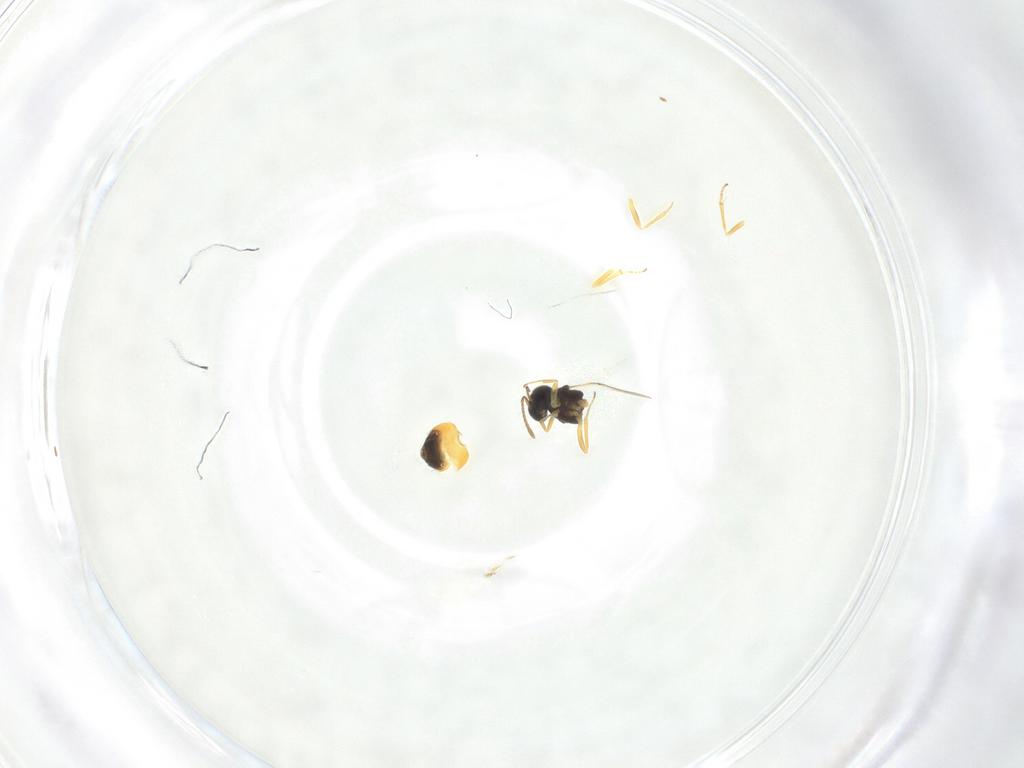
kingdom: Animalia
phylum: Arthropoda
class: Insecta
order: Hymenoptera
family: Encyrtidae
